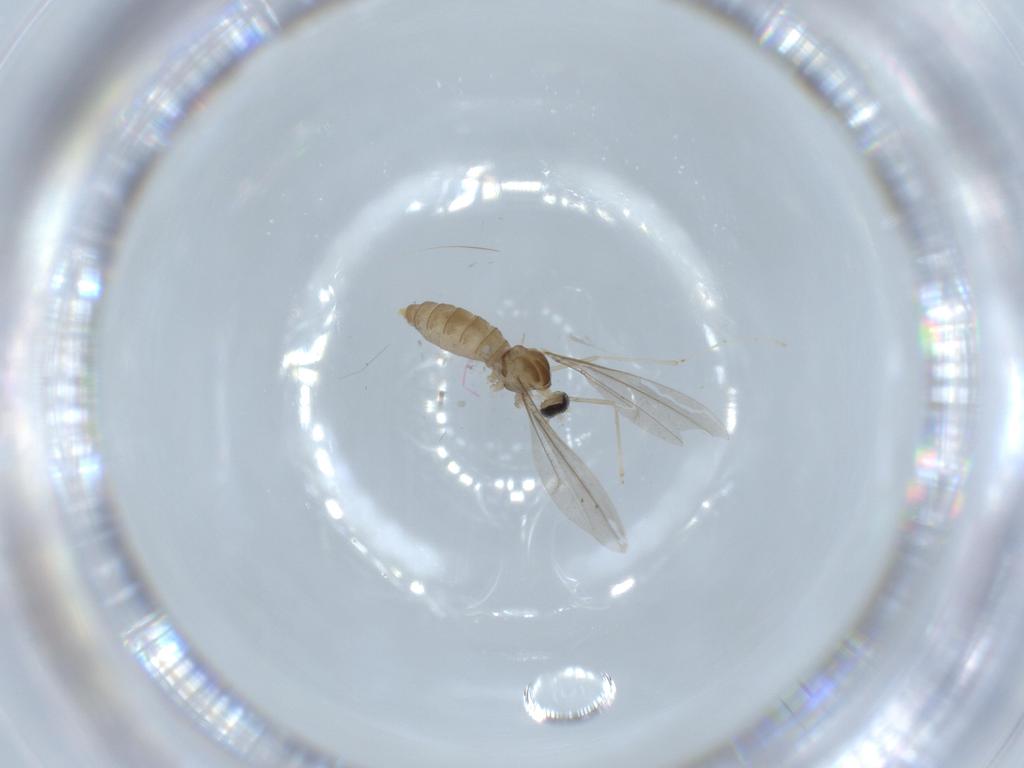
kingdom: Animalia
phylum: Arthropoda
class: Insecta
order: Diptera
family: Cecidomyiidae
